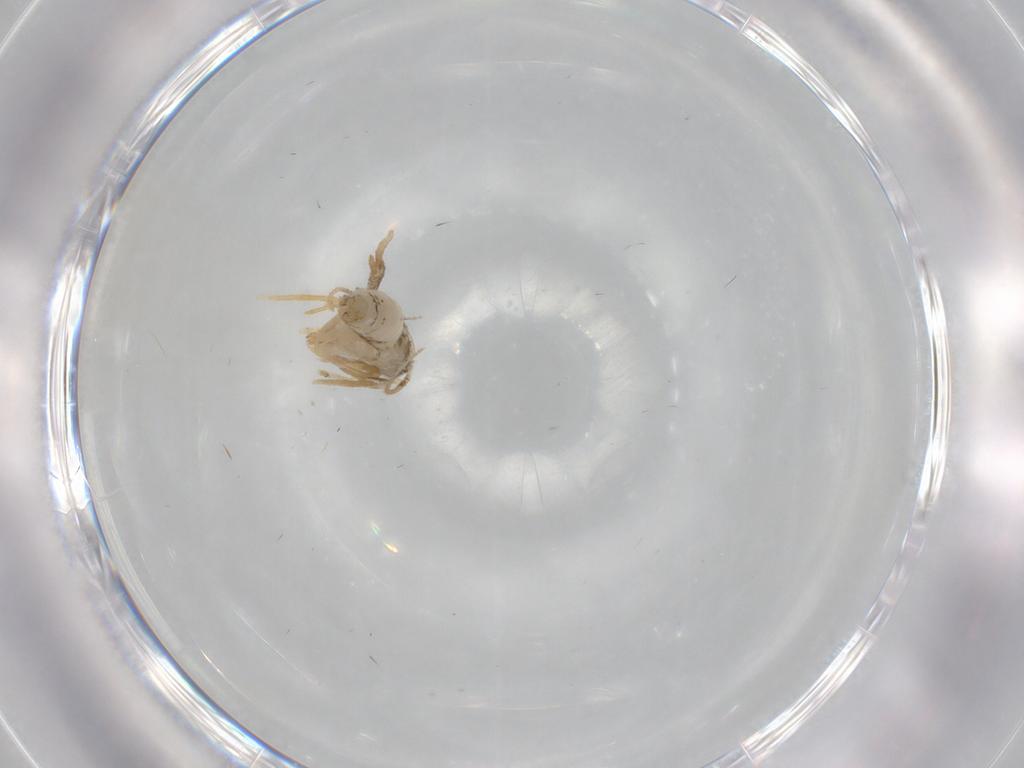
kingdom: Animalia
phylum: Arthropoda
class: Insecta
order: Lepidoptera
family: Psychidae
